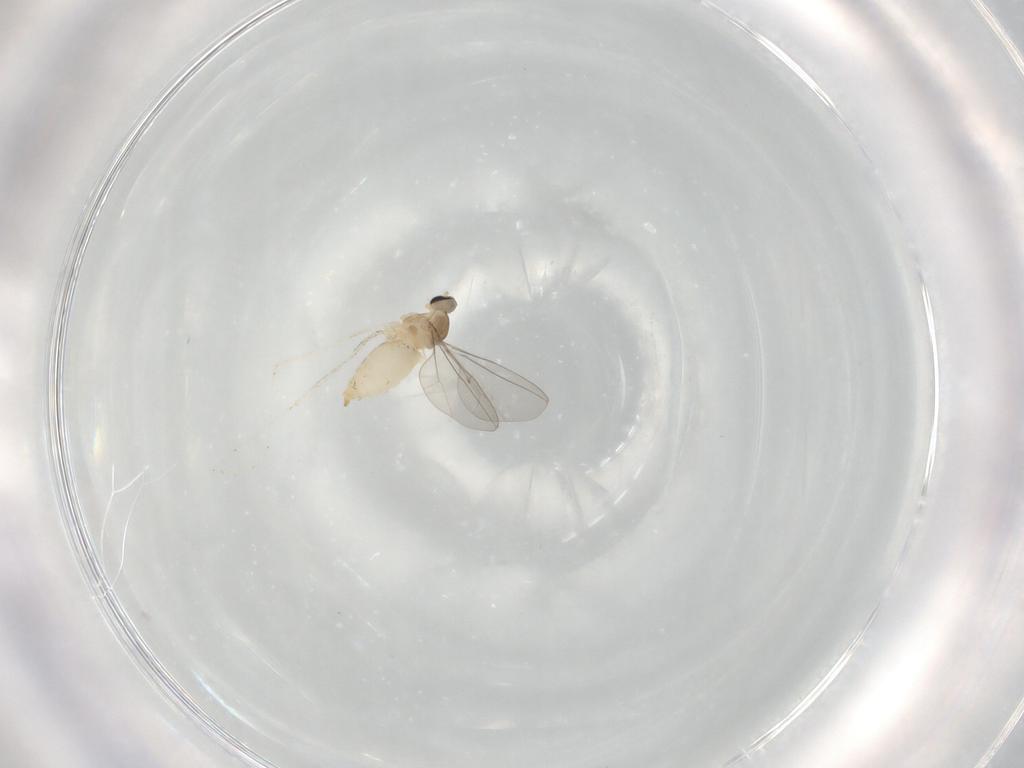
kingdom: Animalia
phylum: Arthropoda
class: Insecta
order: Diptera
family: Cecidomyiidae
